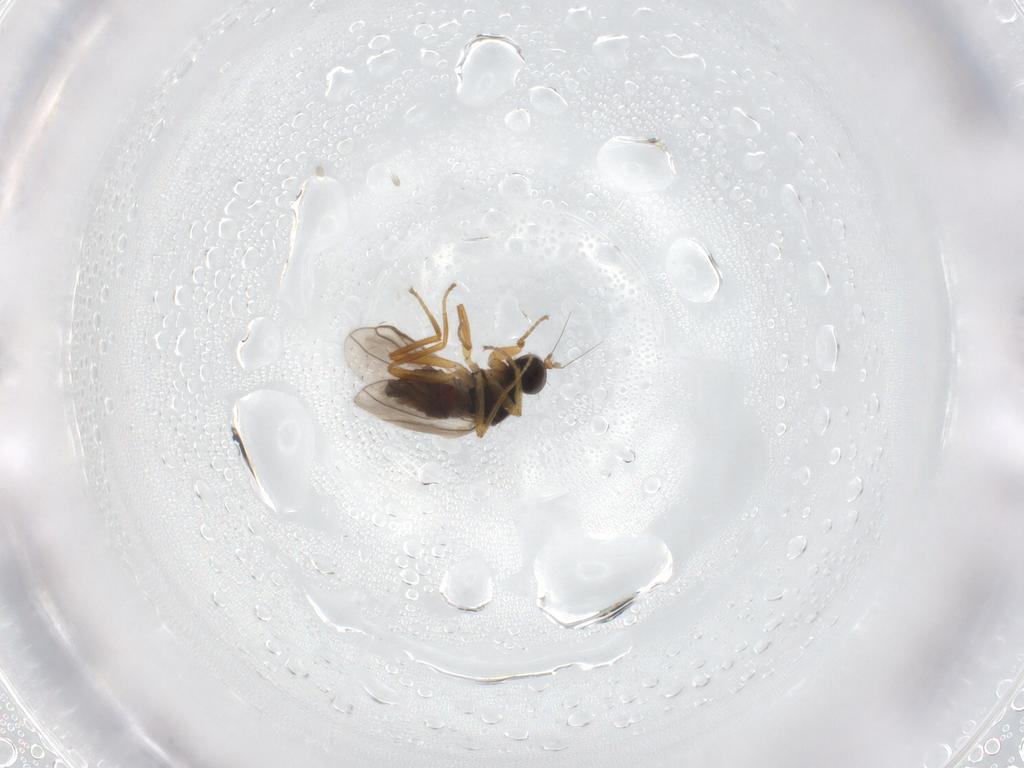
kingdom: Animalia
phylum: Arthropoda
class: Insecta
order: Diptera
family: Hybotidae
